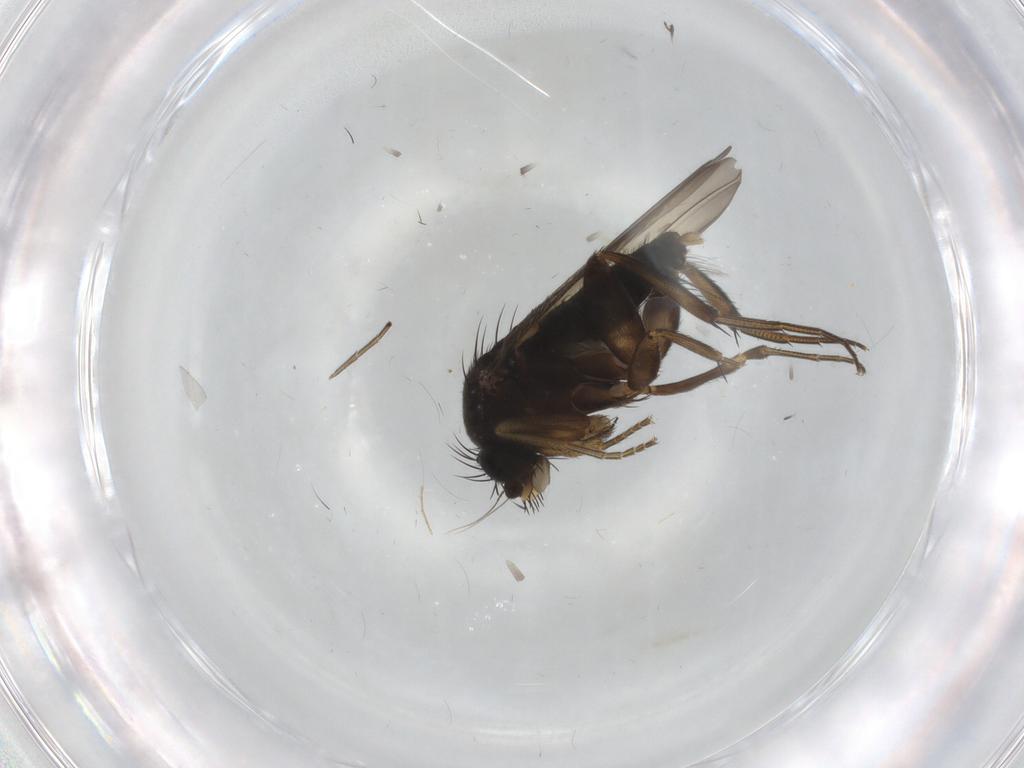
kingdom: Animalia
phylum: Arthropoda
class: Insecta
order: Diptera
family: Phoridae
